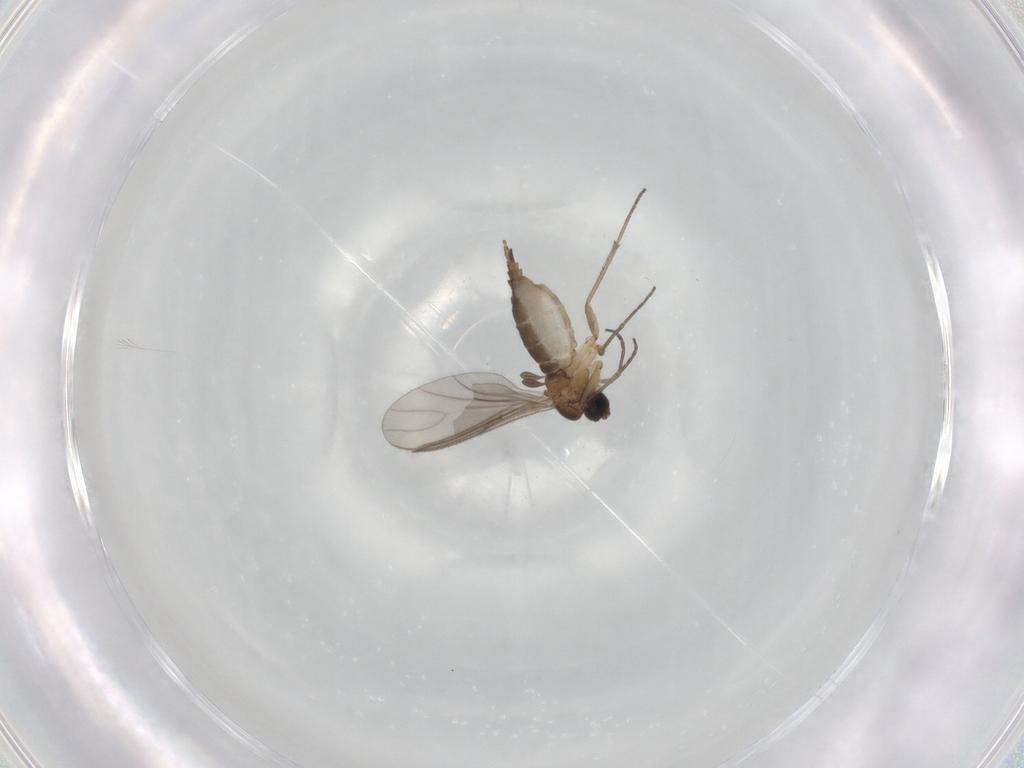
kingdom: Animalia
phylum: Arthropoda
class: Insecta
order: Diptera
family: Sciaridae
